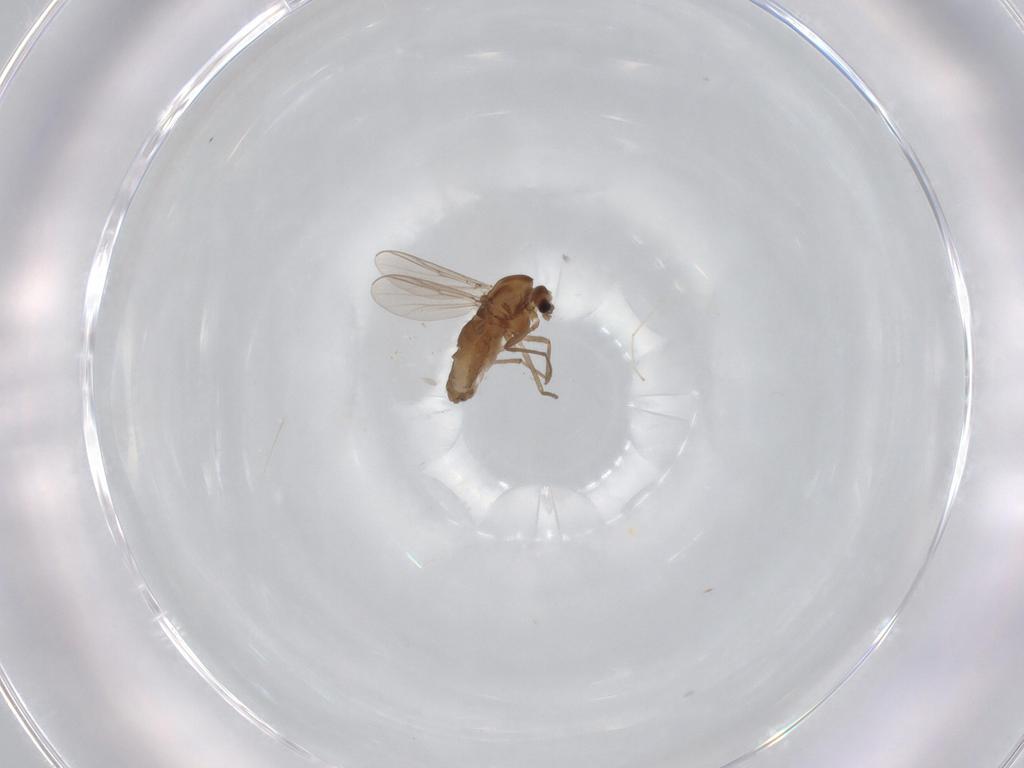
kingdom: Animalia
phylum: Arthropoda
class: Insecta
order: Diptera
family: Chironomidae
